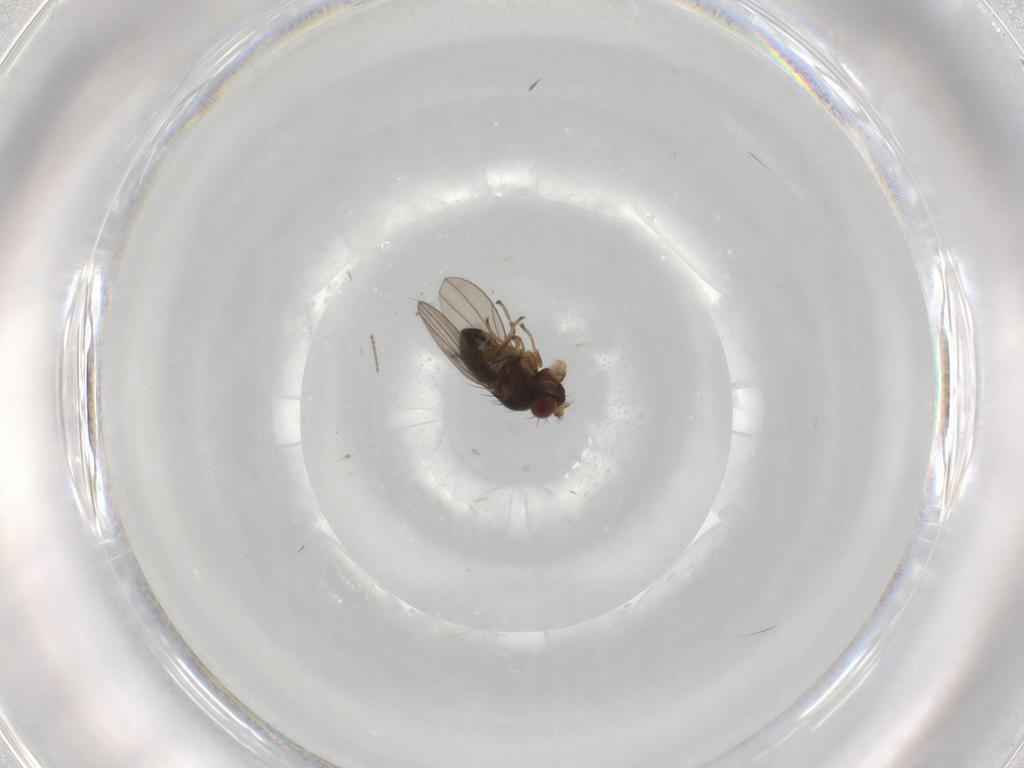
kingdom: Animalia
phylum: Arthropoda
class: Insecta
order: Diptera
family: Ephydridae
